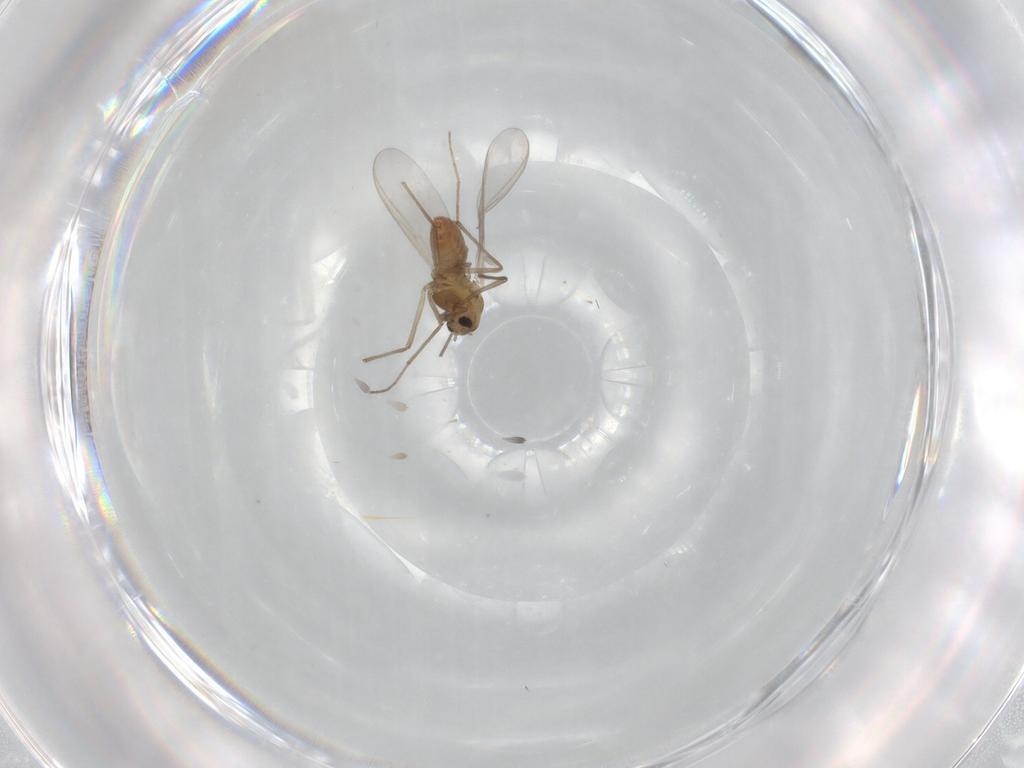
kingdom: Animalia
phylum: Arthropoda
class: Insecta
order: Diptera
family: Chironomidae
